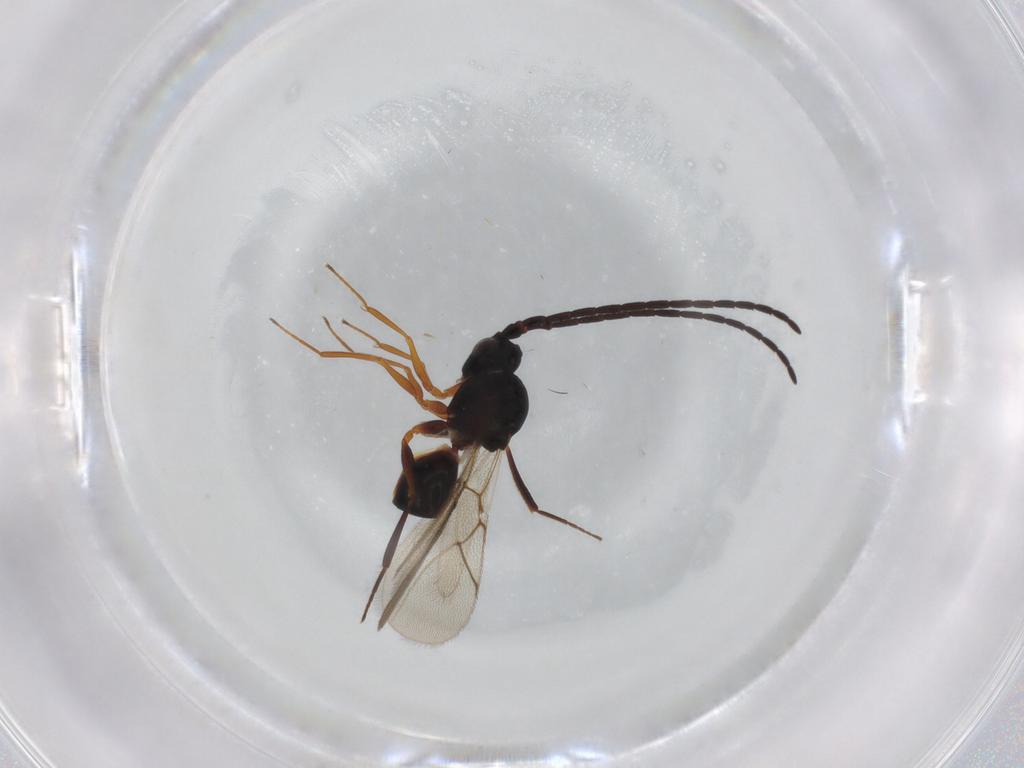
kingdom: Animalia
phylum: Arthropoda
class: Insecta
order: Hymenoptera
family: Figitidae
